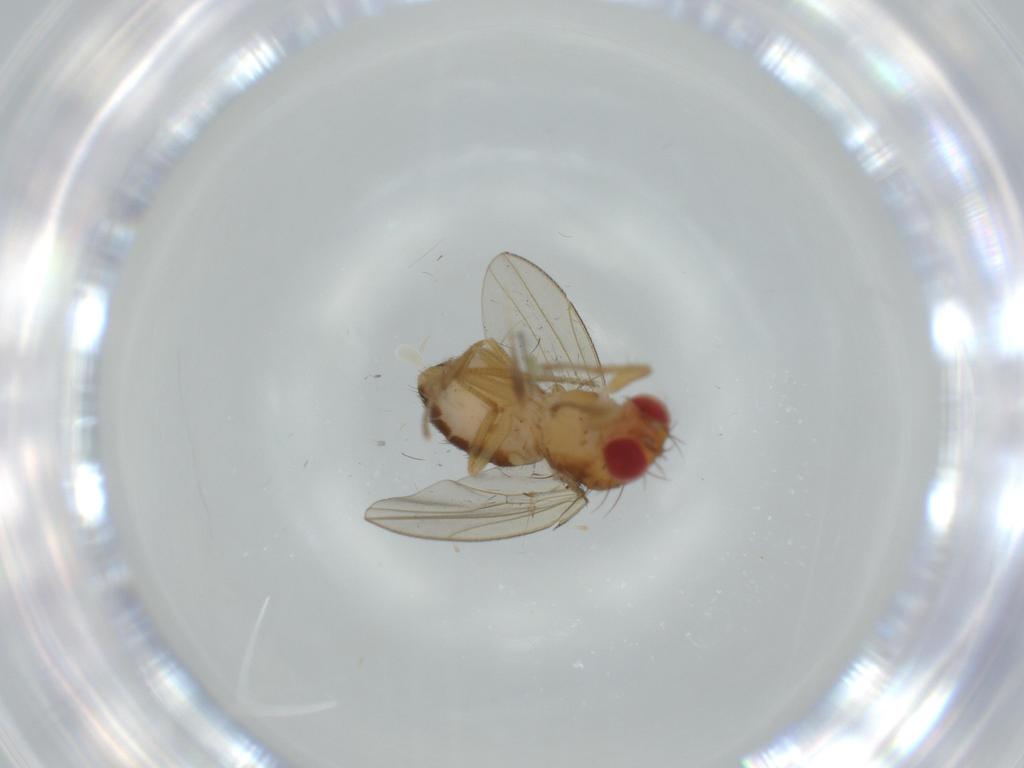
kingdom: Animalia
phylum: Arthropoda
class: Insecta
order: Diptera
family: Drosophilidae
